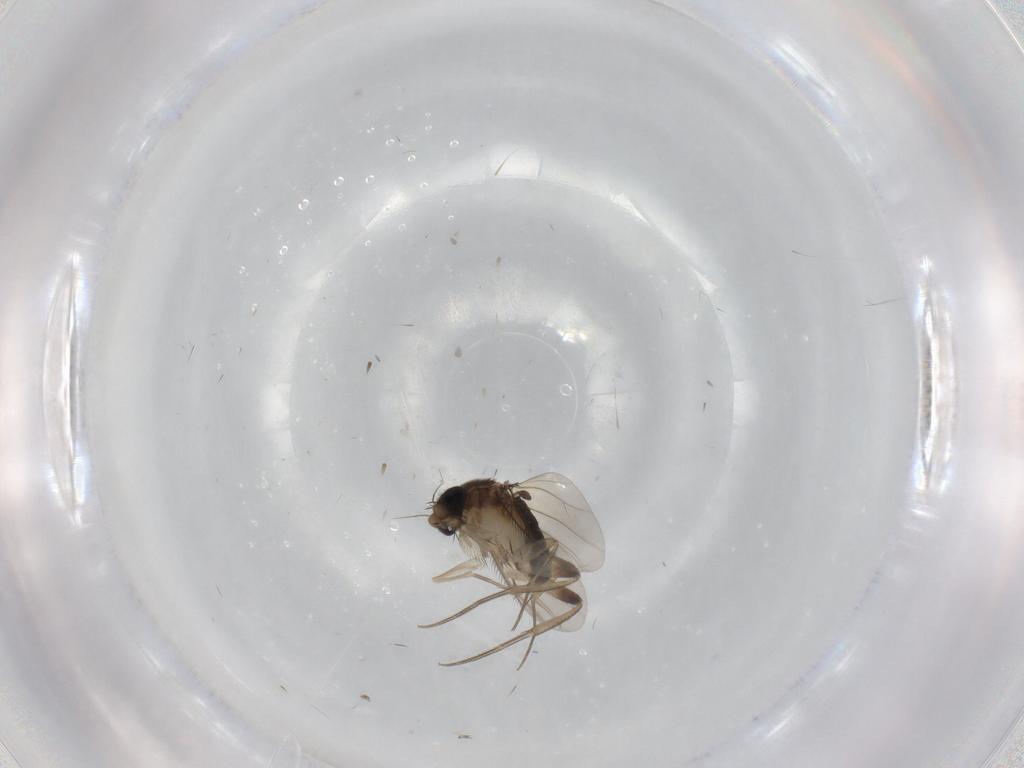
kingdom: Animalia
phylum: Arthropoda
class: Insecta
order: Diptera
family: Phoridae
